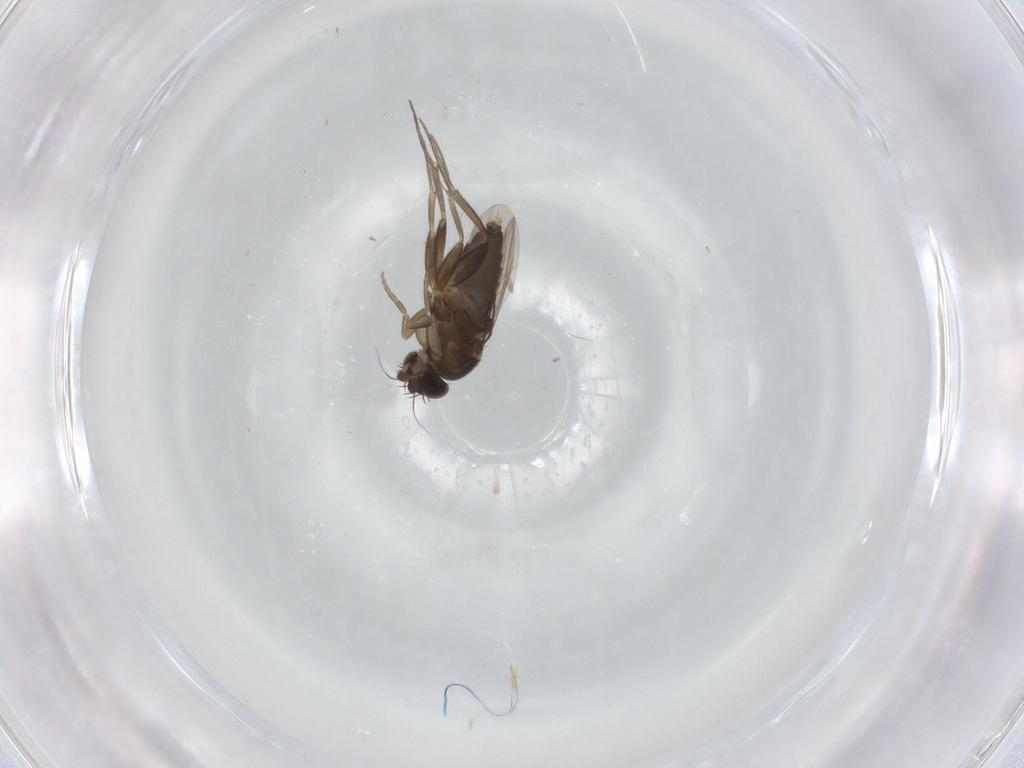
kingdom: Animalia
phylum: Arthropoda
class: Insecta
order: Diptera
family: Phoridae
